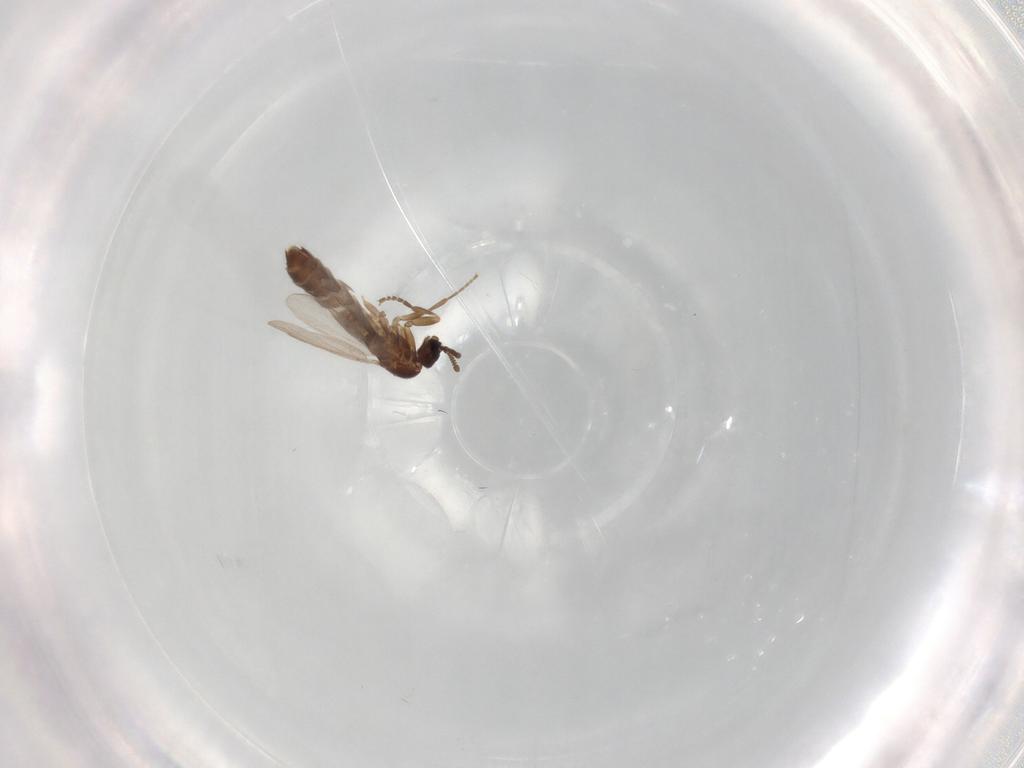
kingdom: Animalia
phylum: Arthropoda
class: Insecta
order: Diptera
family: Scatopsidae
